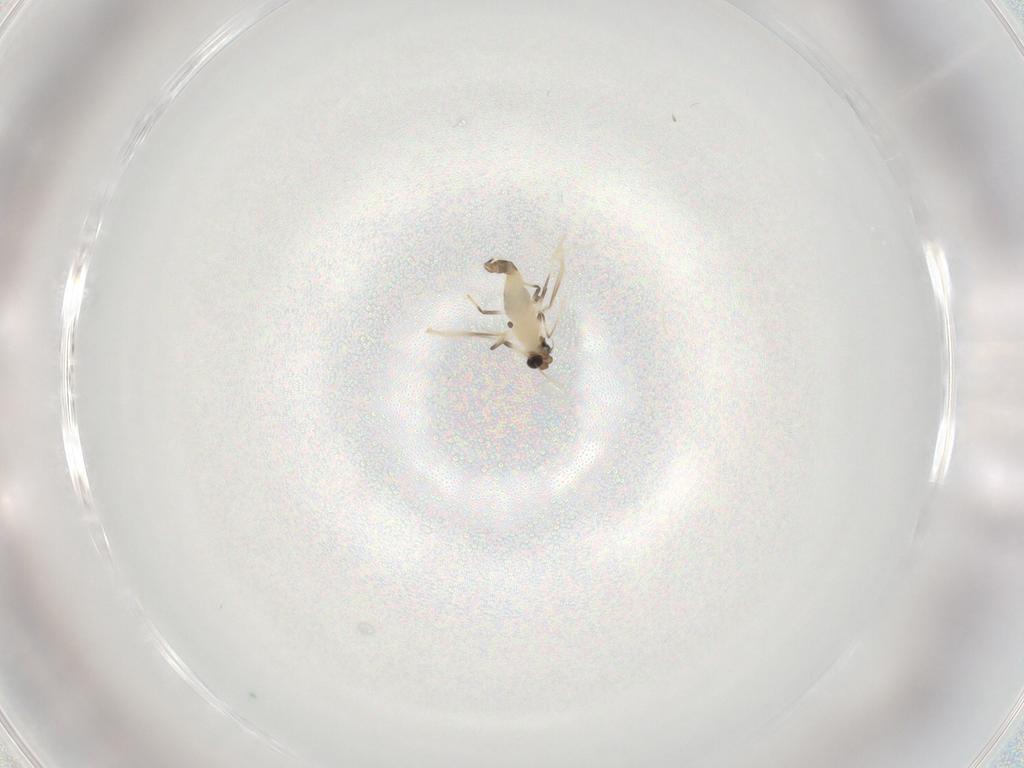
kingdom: Animalia
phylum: Arthropoda
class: Insecta
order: Diptera
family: Chironomidae
